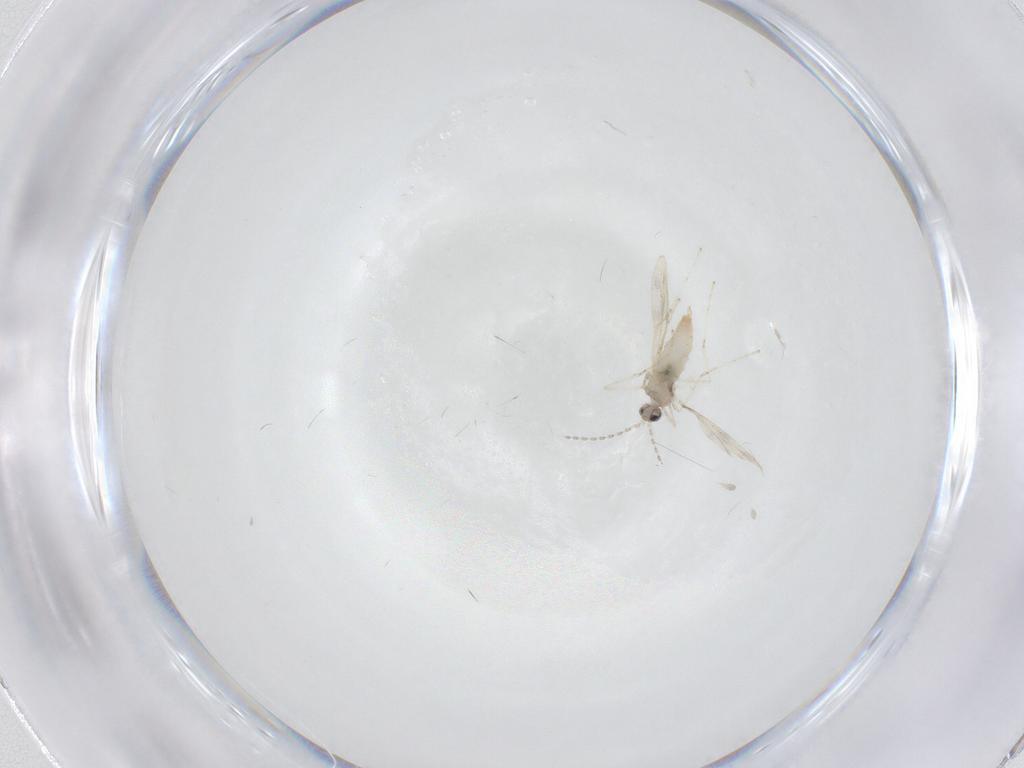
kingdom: Animalia
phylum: Arthropoda
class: Insecta
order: Diptera
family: Cecidomyiidae
